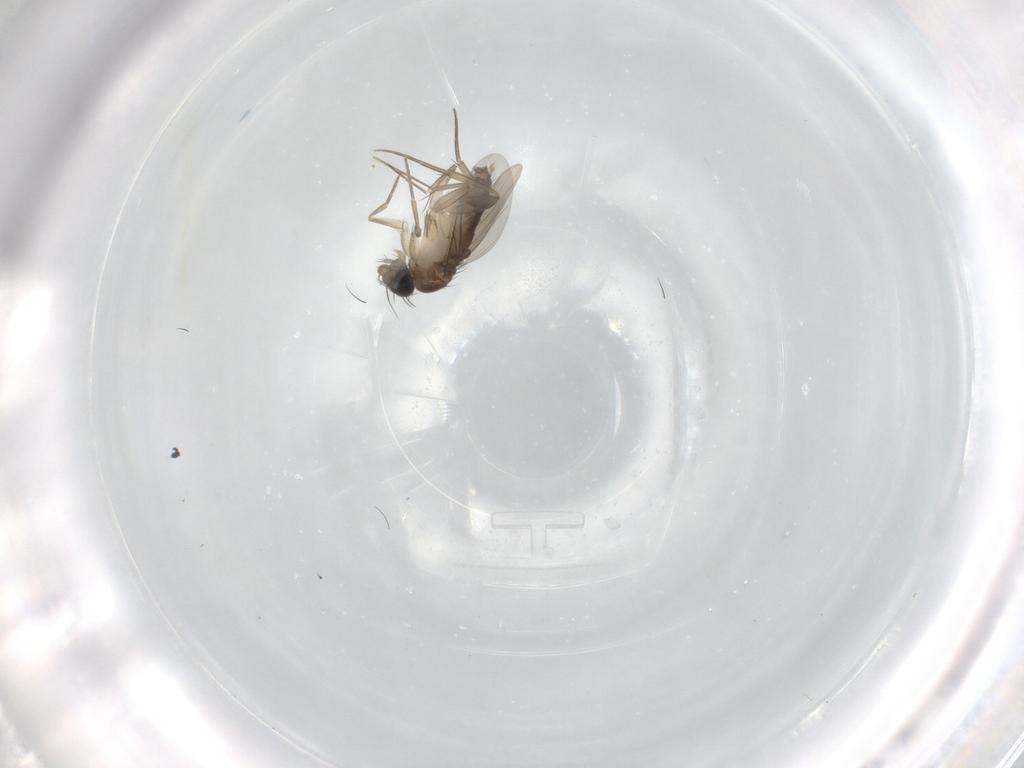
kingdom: Animalia
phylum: Arthropoda
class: Insecta
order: Diptera
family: Phoridae
